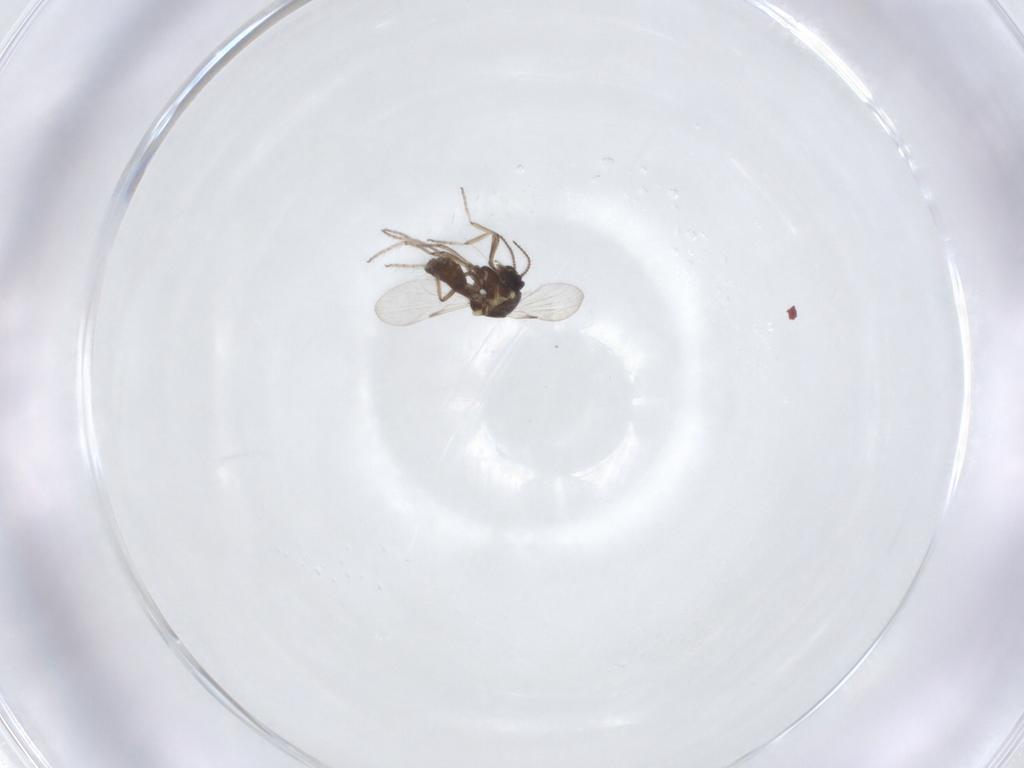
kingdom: Animalia
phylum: Arthropoda
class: Insecta
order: Diptera
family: Ceratopogonidae
